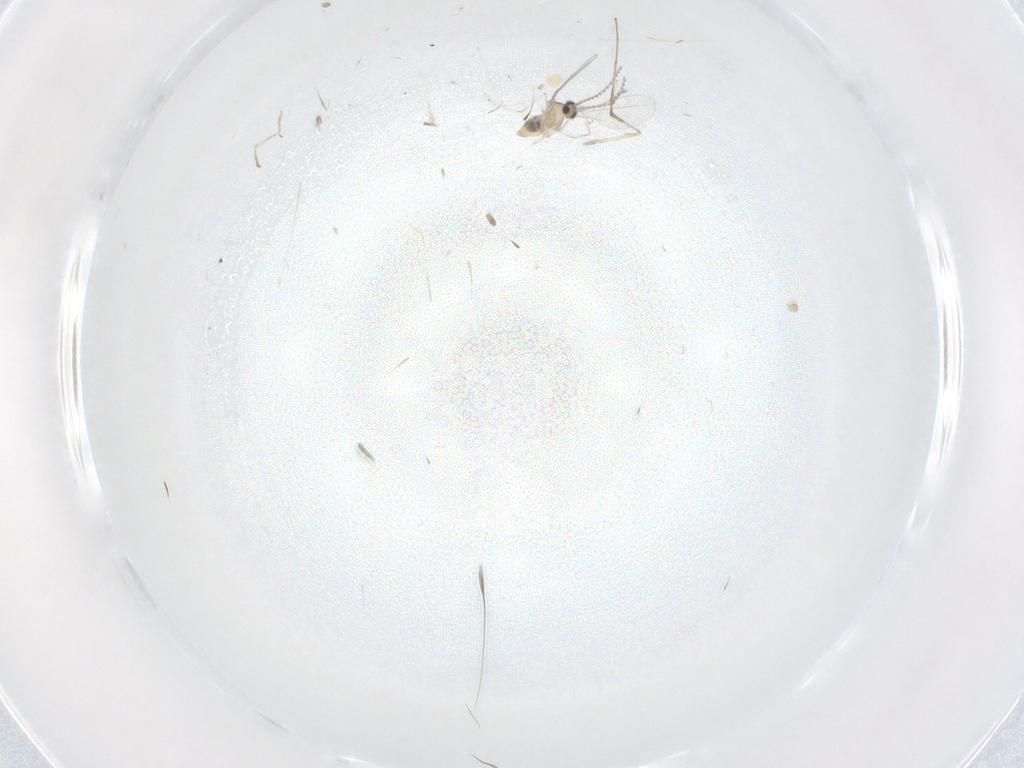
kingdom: Animalia
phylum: Arthropoda
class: Insecta
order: Diptera
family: Cecidomyiidae
